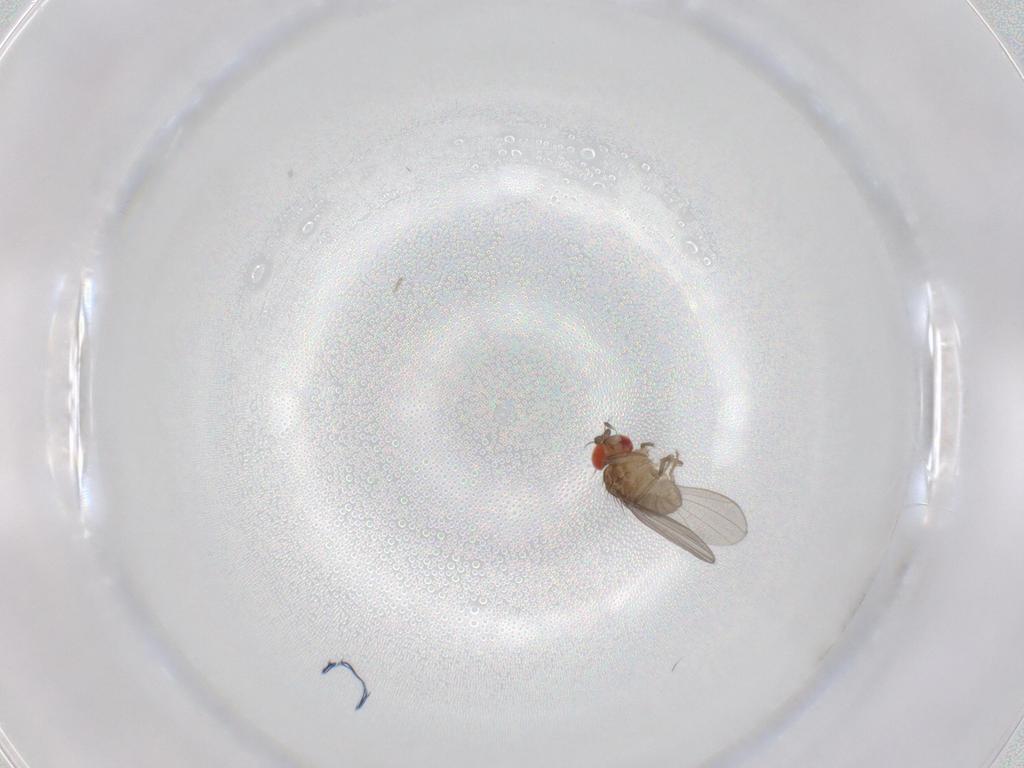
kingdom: Animalia
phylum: Arthropoda
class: Insecta
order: Diptera
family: Drosophilidae
